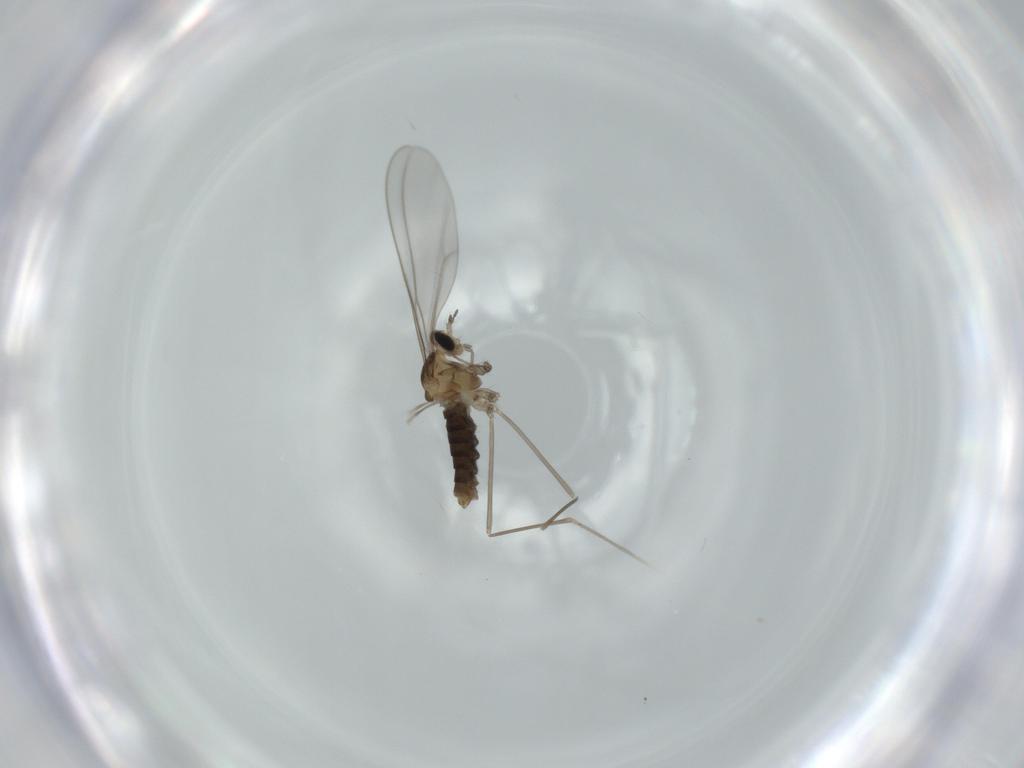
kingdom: Animalia
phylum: Arthropoda
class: Insecta
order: Diptera
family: Cecidomyiidae
